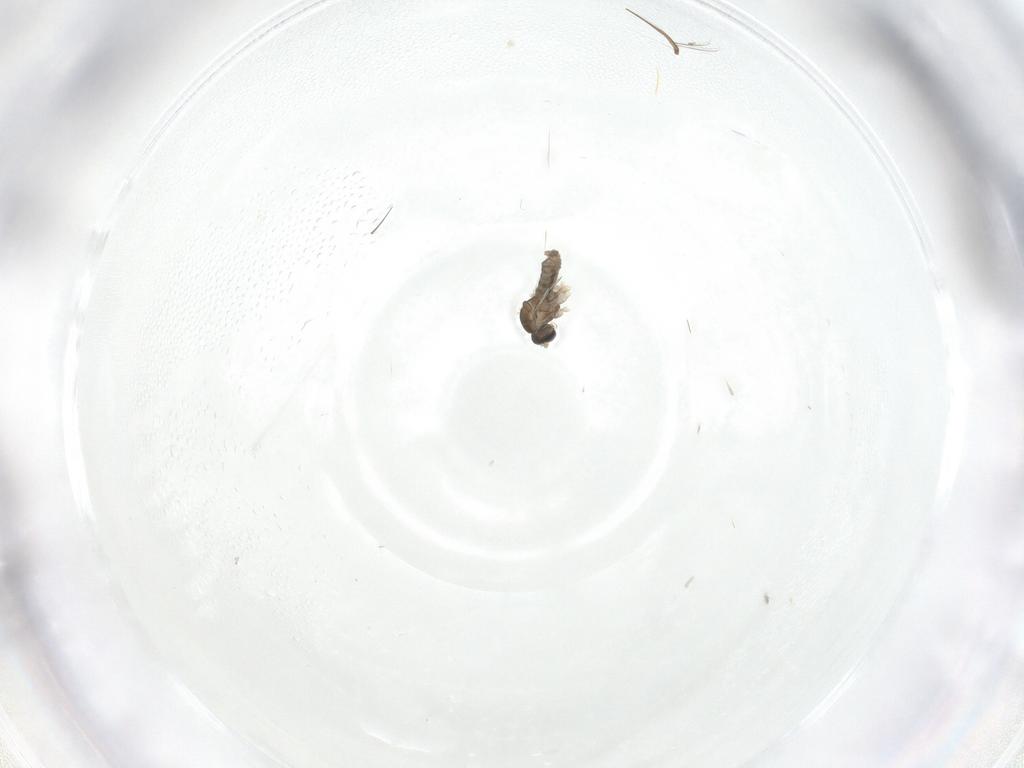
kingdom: Animalia
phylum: Arthropoda
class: Insecta
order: Diptera
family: Cecidomyiidae
